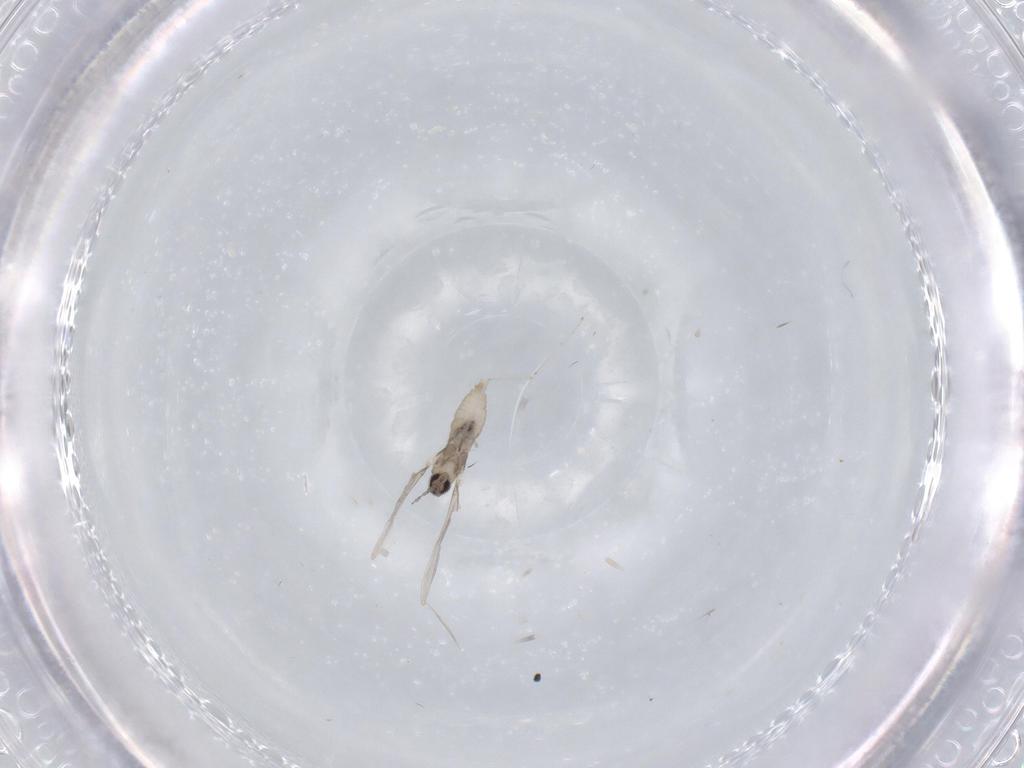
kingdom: Animalia
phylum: Arthropoda
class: Insecta
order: Diptera
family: Cecidomyiidae
